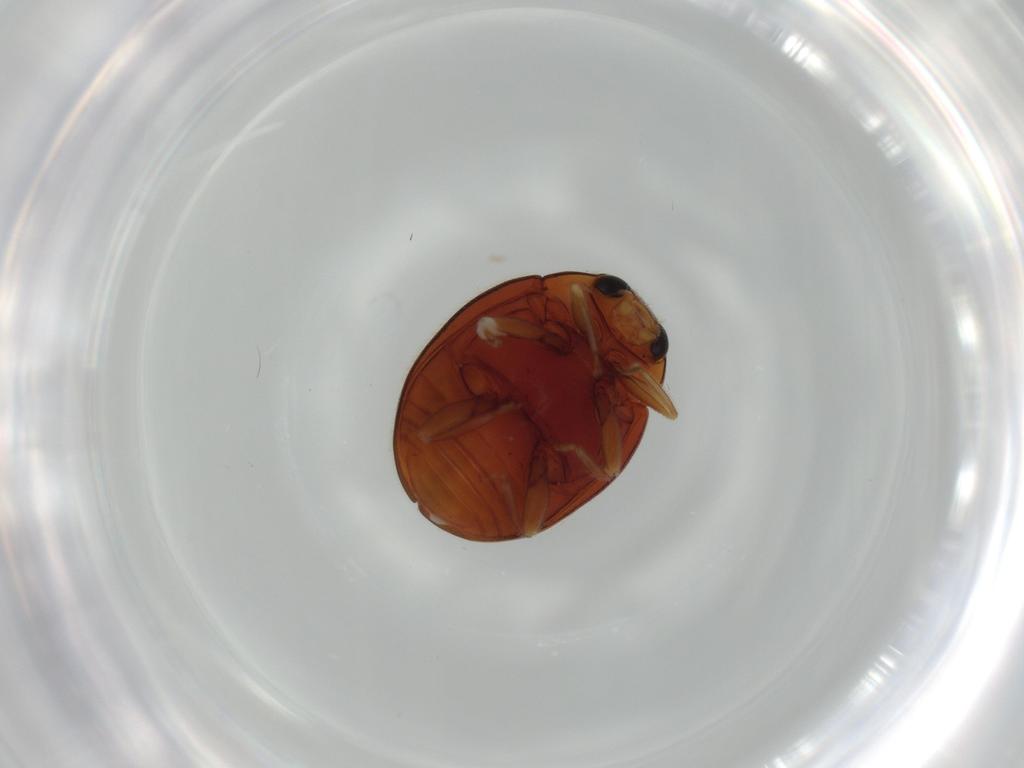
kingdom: Animalia
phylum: Arthropoda
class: Insecta
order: Coleoptera
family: Coccinellidae
